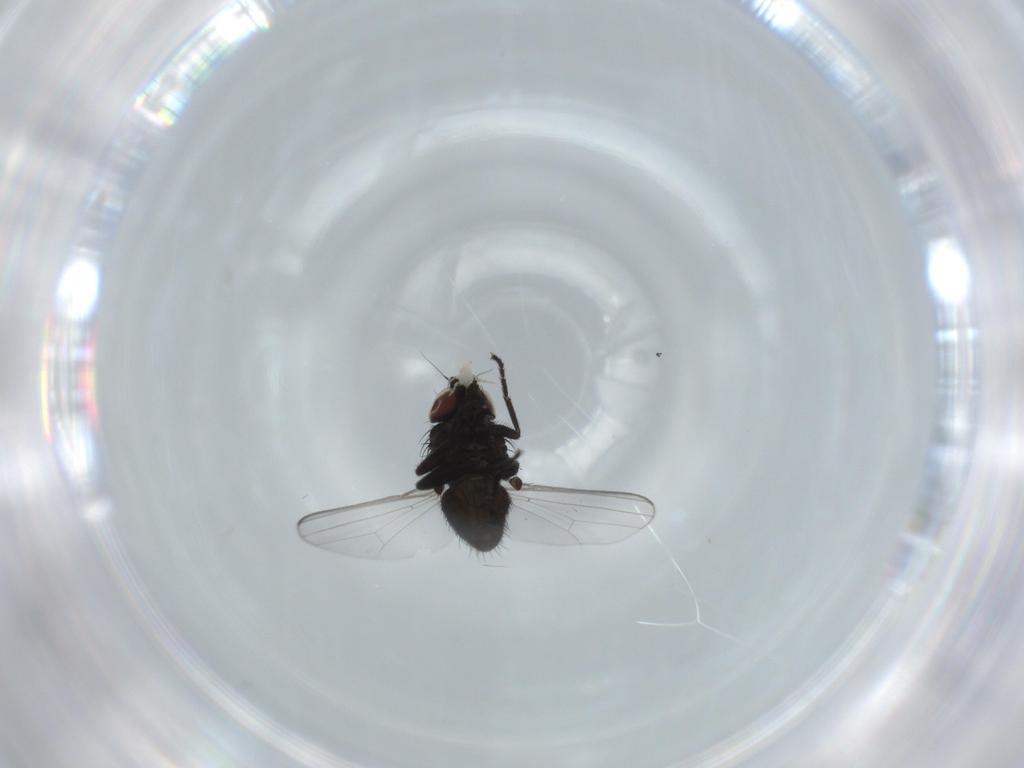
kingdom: Animalia
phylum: Arthropoda
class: Insecta
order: Diptera
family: Milichiidae
